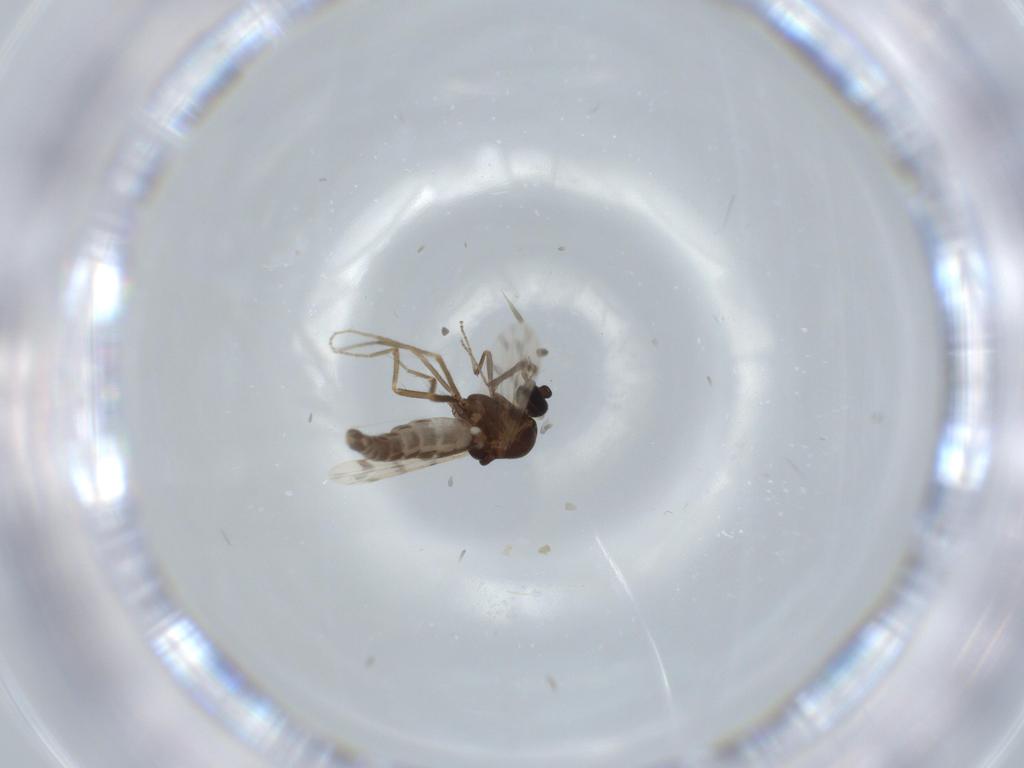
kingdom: Animalia
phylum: Arthropoda
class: Insecta
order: Diptera
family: Ceratopogonidae
